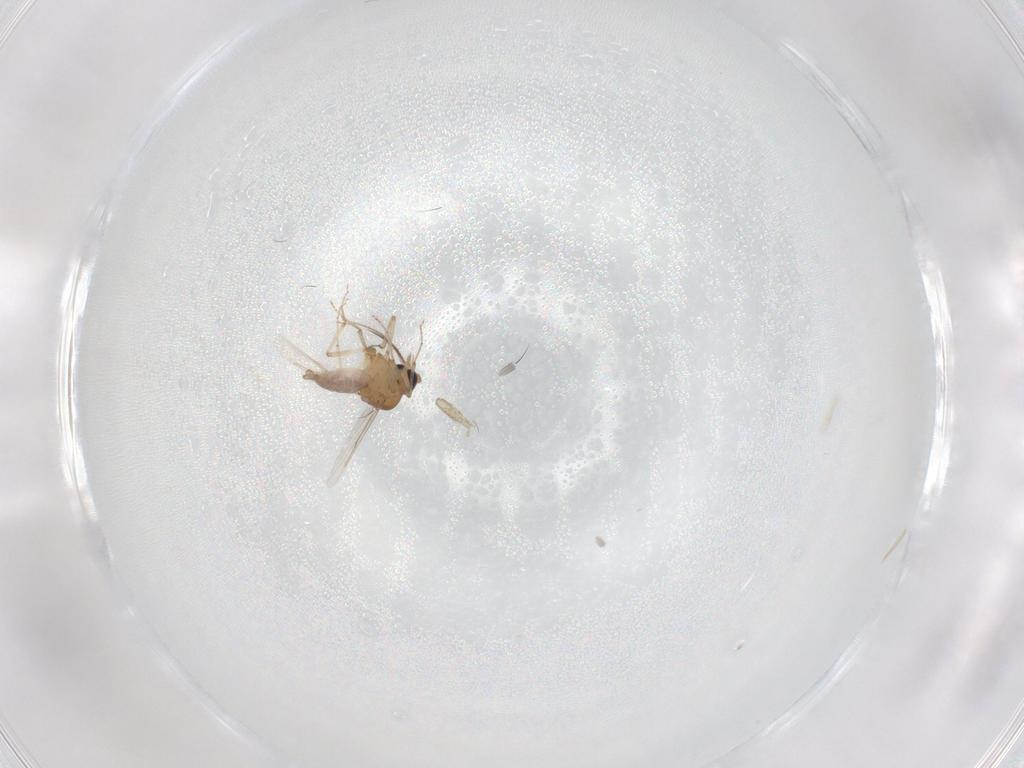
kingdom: Animalia
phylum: Arthropoda
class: Insecta
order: Diptera
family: Ceratopogonidae
